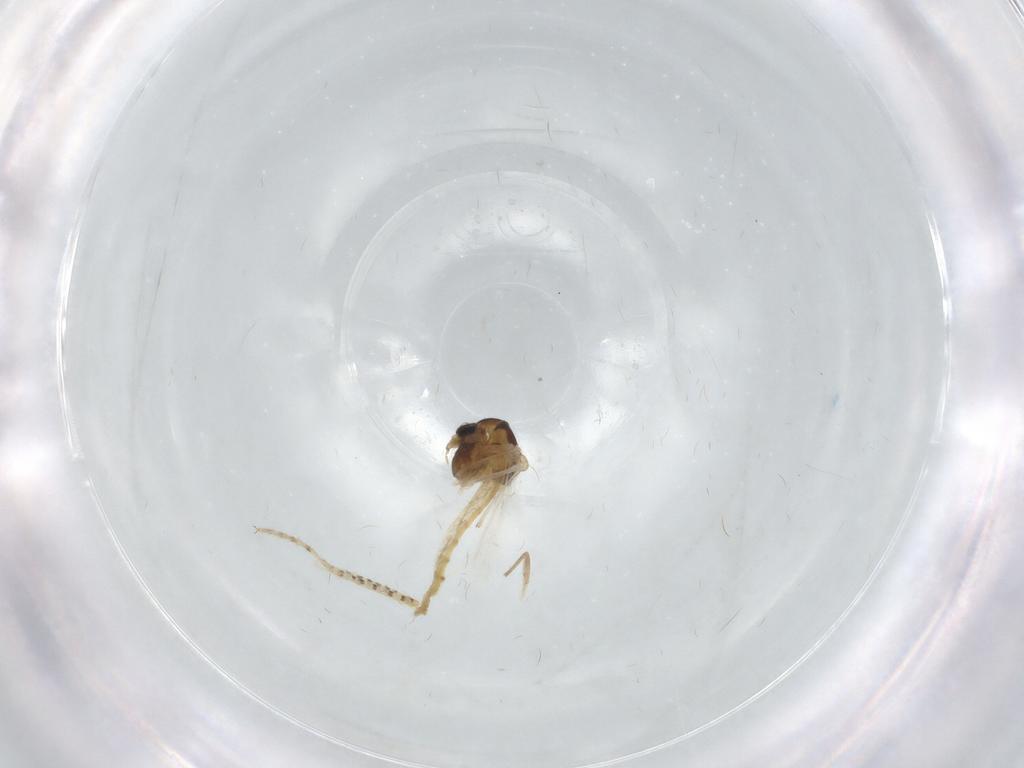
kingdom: Animalia
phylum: Arthropoda
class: Insecta
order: Diptera
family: Chironomidae
